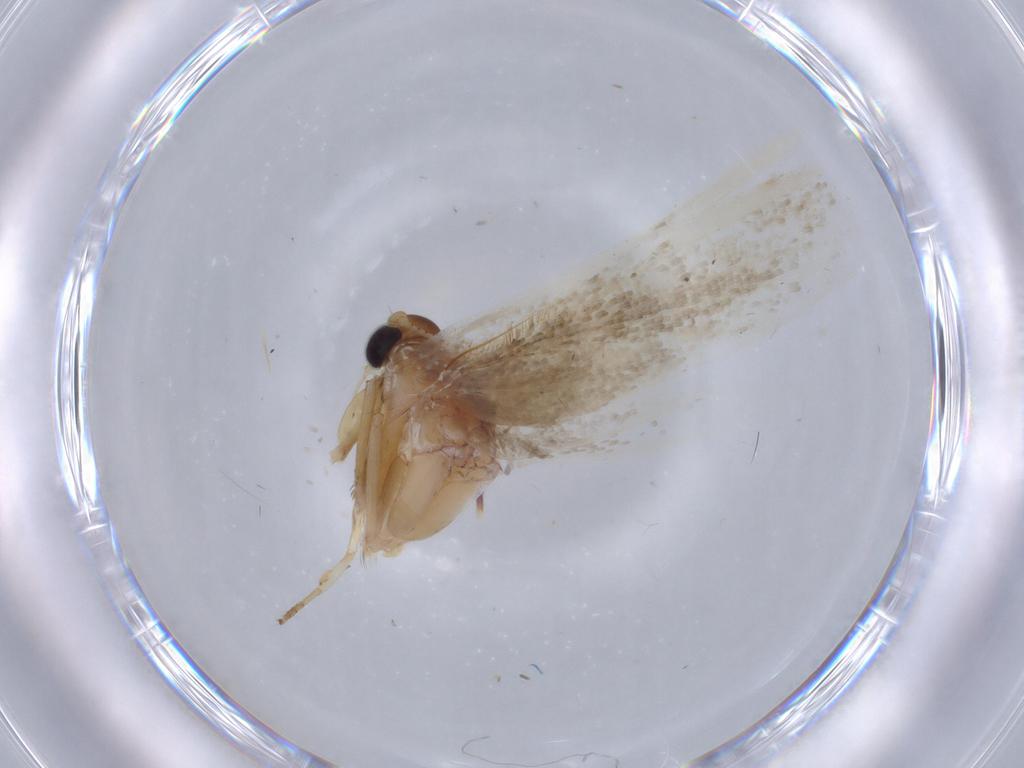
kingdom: Animalia
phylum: Arthropoda
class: Insecta
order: Lepidoptera
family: Blastobasidae
